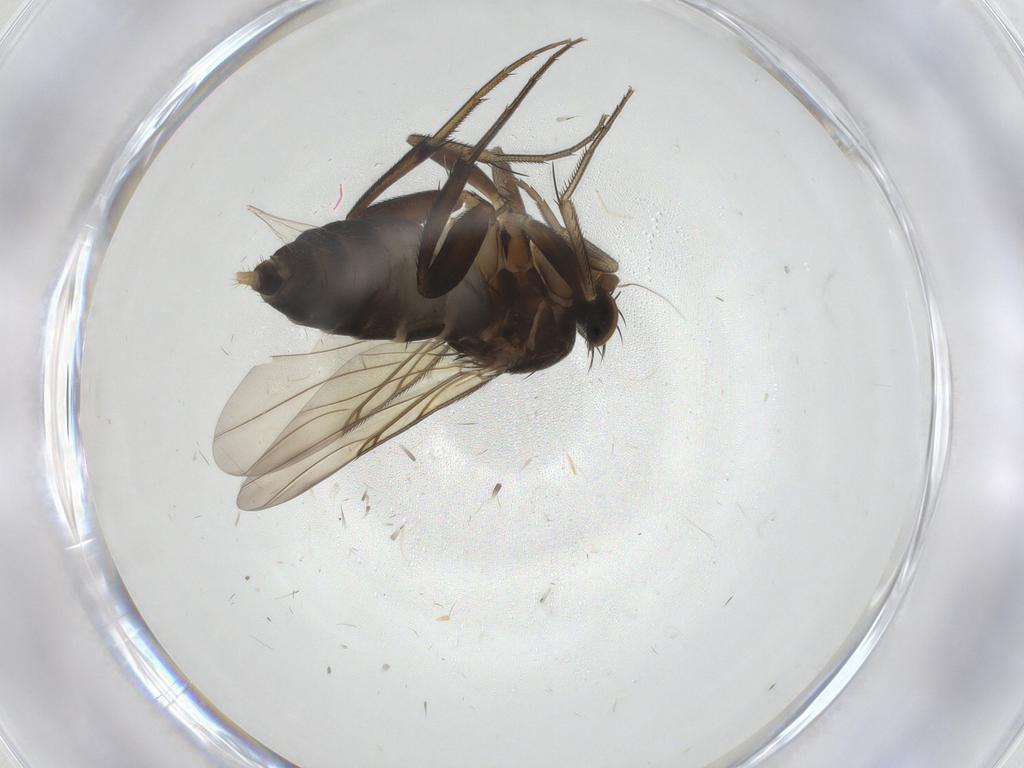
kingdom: Animalia
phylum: Arthropoda
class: Insecta
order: Diptera
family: Phoridae
